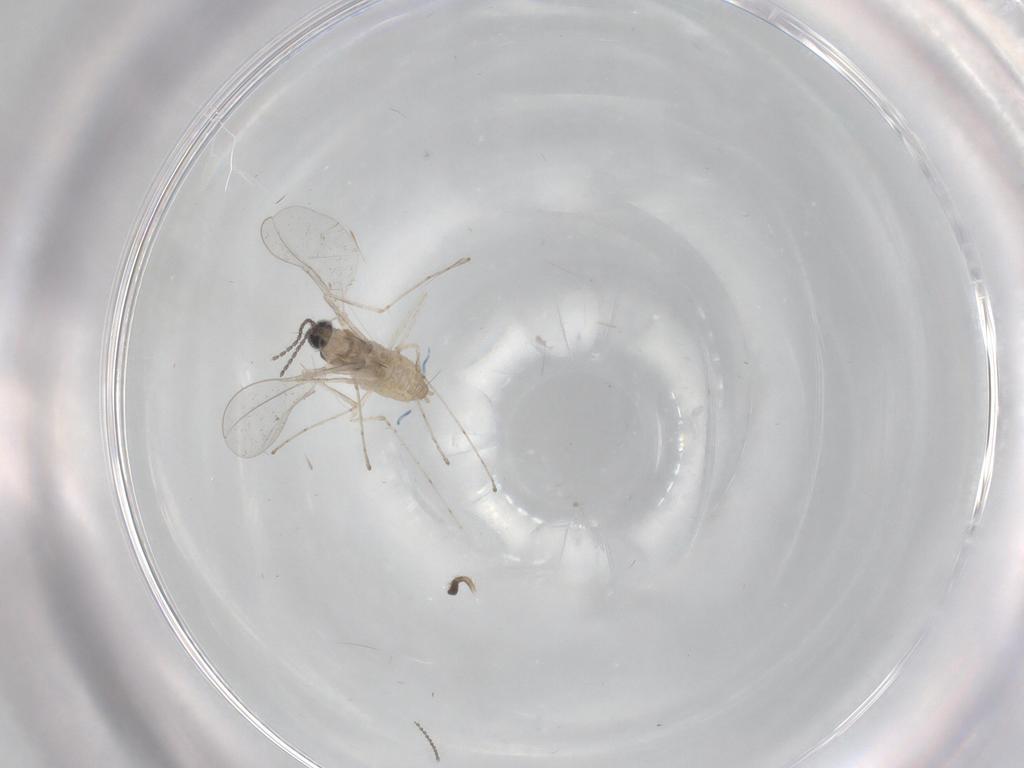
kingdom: Animalia
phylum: Arthropoda
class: Insecta
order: Diptera
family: Cecidomyiidae
